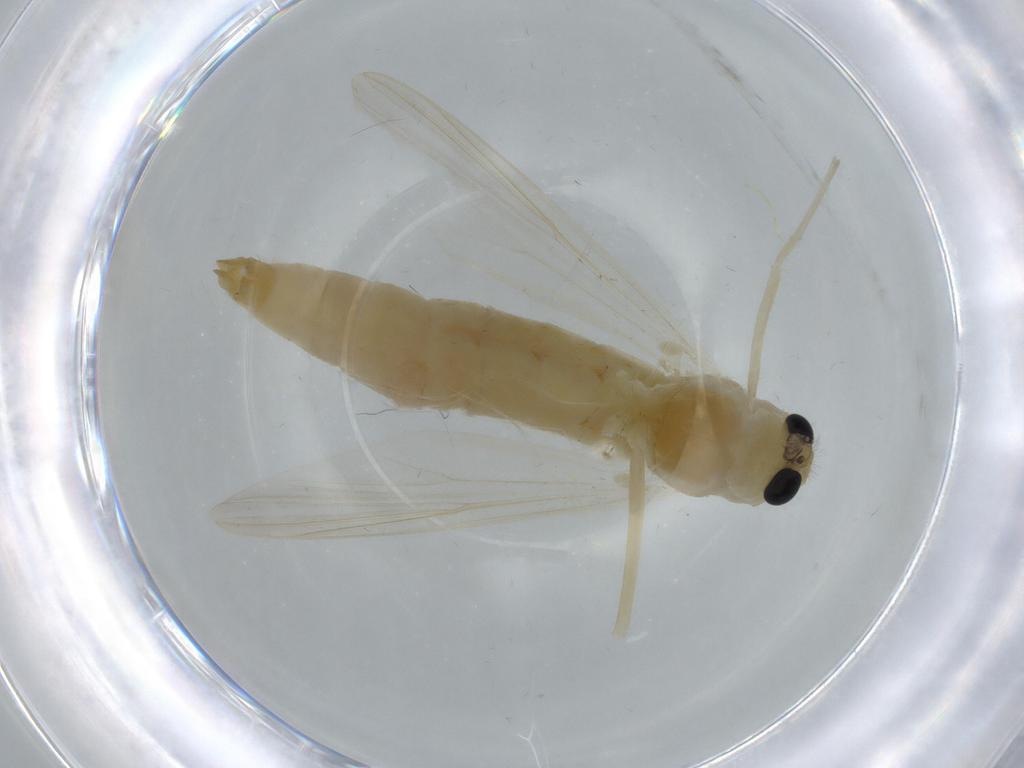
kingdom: Animalia
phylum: Arthropoda
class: Insecta
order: Diptera
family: Chironomidae
